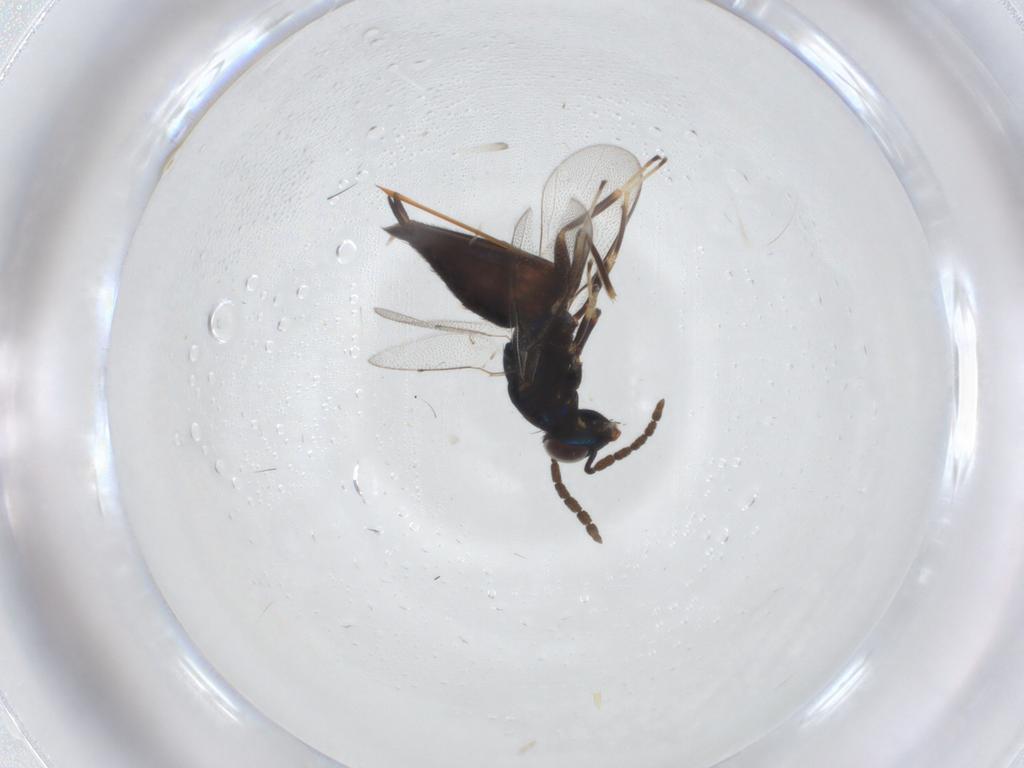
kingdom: Animalia
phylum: Arthropoda
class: Insecta
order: Hymenoptera
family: Eulophidae
